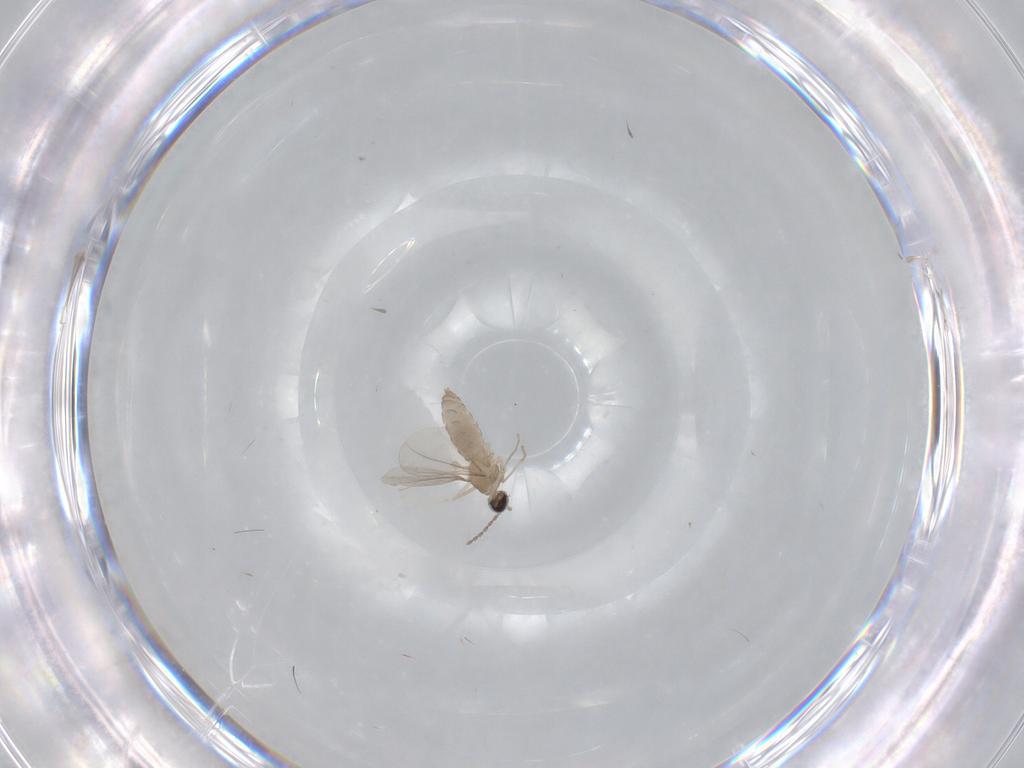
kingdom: Animalia
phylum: Arthropoda
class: Insecta
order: Diptera
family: Cecidomyiidae
